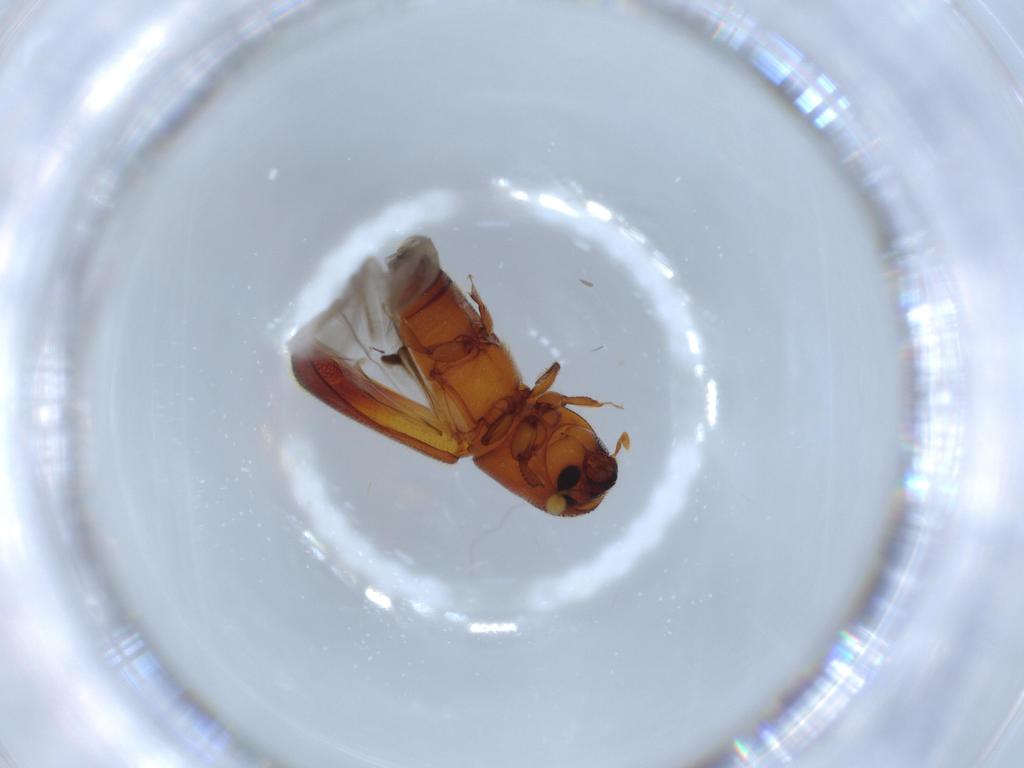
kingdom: Animalia
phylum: Arthropoda
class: Insecta
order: Coleoptera
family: Curculionidae
